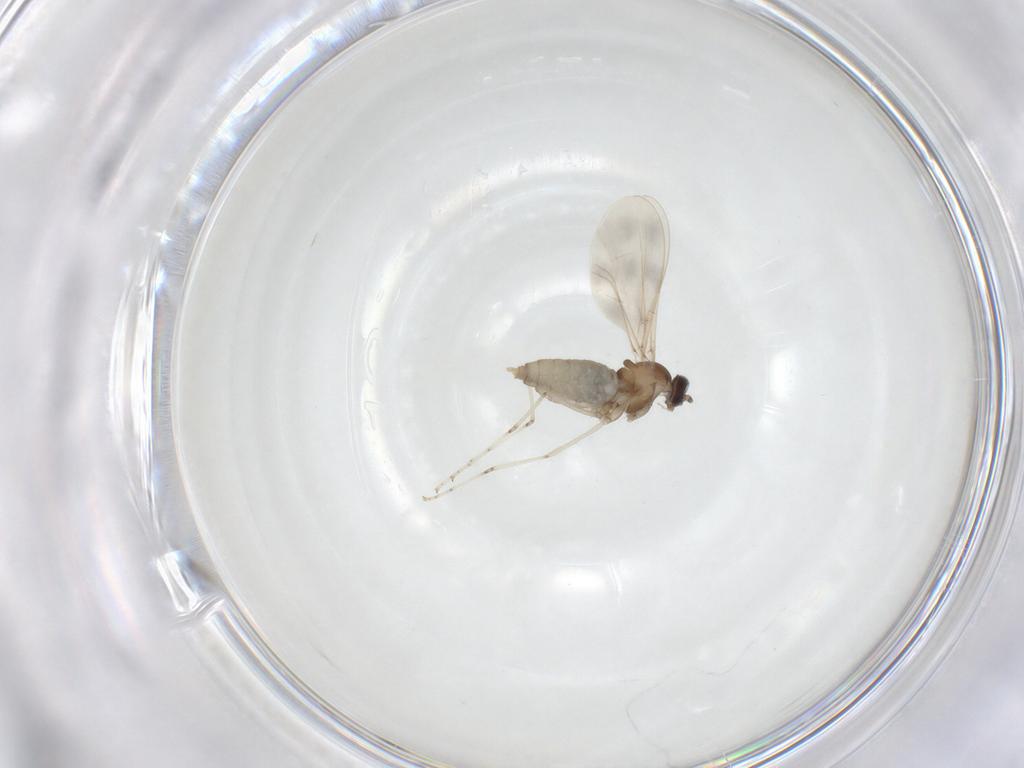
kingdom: Animalia
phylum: Arthropoda
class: Insecta
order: Diptera
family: Cecidomyiidae
